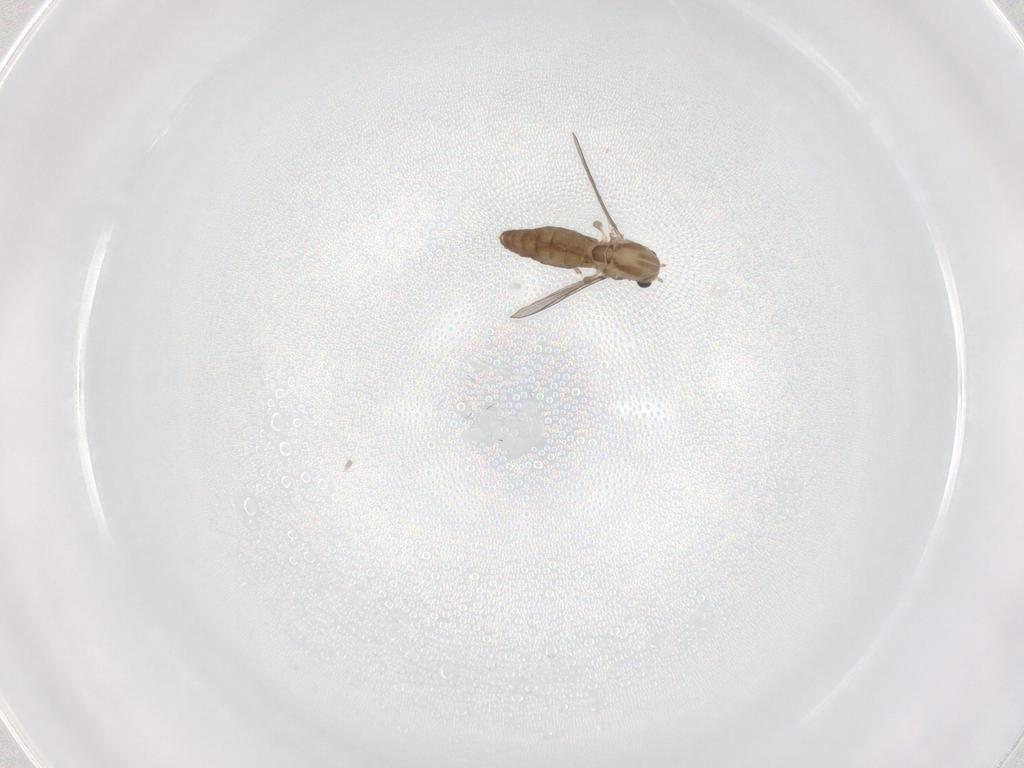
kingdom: Animalia
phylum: Arthropoda
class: Insecta
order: Diptera
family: Chironomidae
